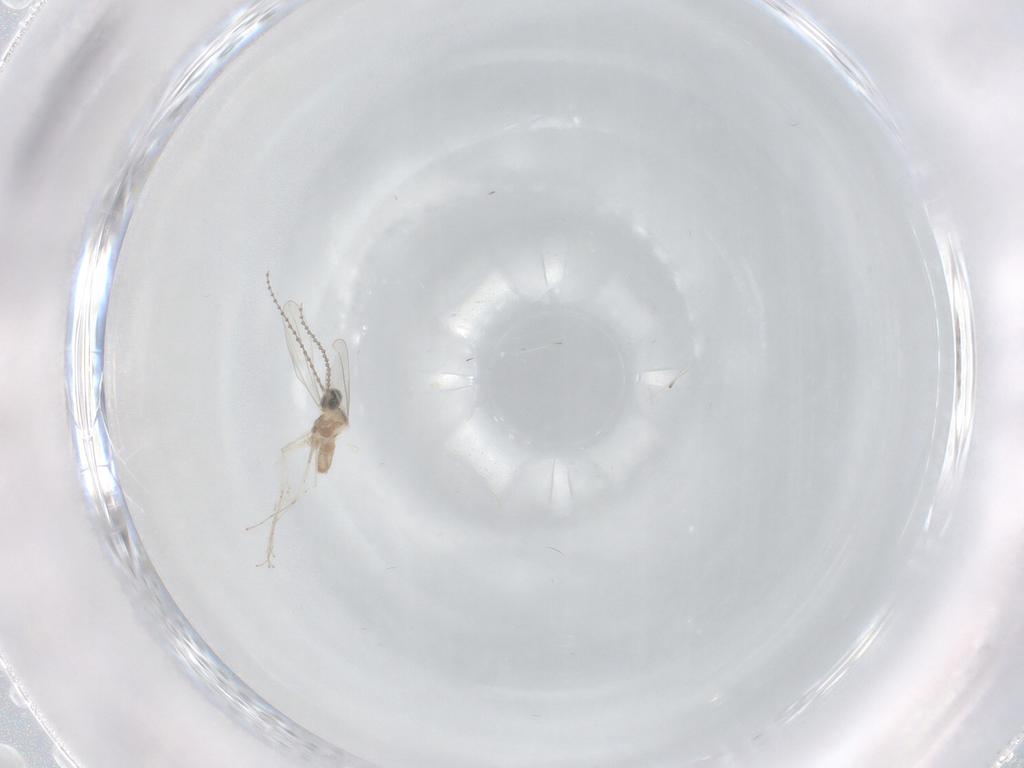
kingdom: Animalia
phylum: Arthropoda
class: Insecta
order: Diptera
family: Cecidomyiidae
